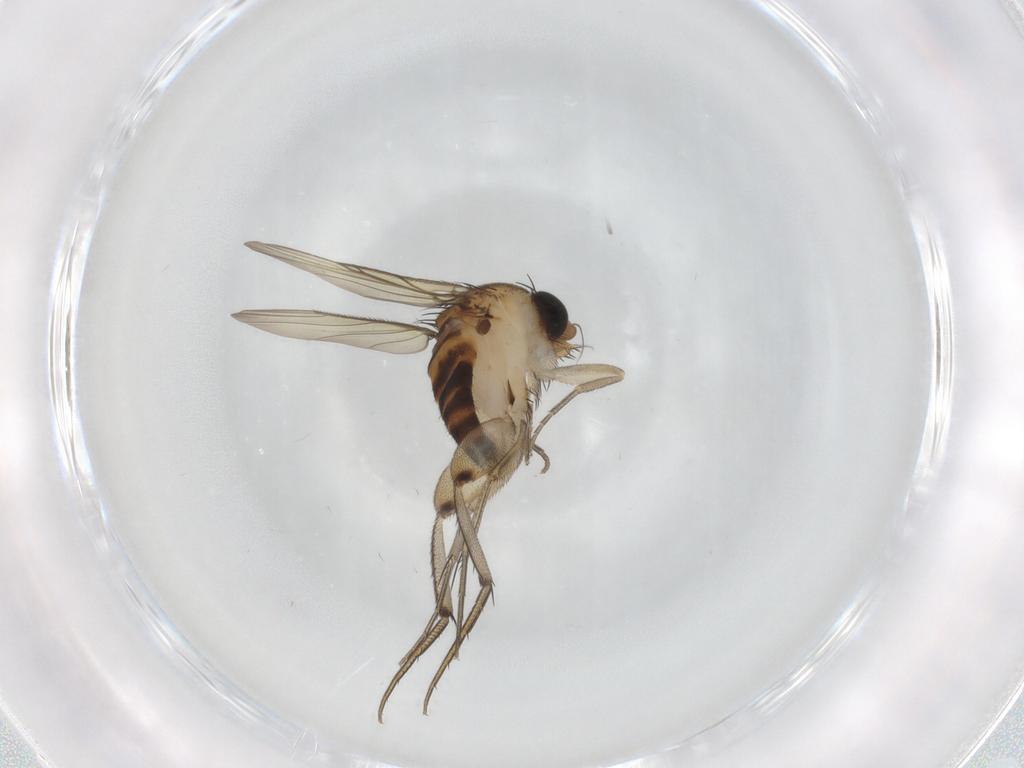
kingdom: Animalia
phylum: Arthropoda
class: Insecta
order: Diptera
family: Phoridae
